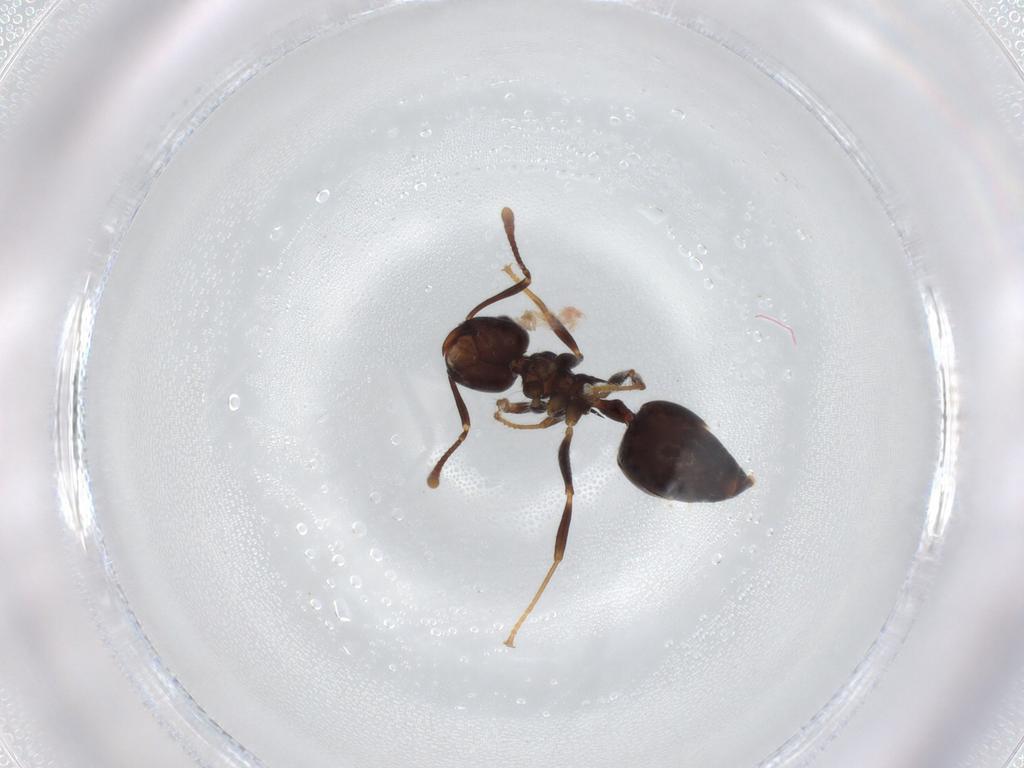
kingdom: Animalia
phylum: Arthropoda
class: Insecta
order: Hymenoptera
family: Formicidae
